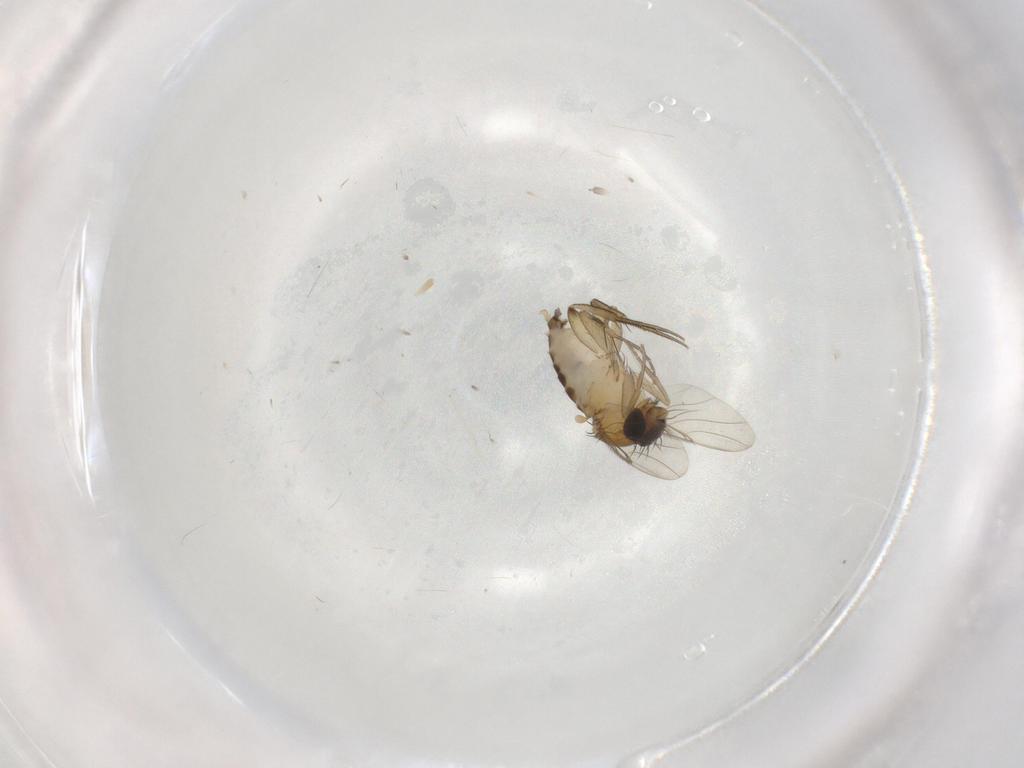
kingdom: Animalia
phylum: Arthropoda
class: Insecta
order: Diptera
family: Cecidomyiidae
